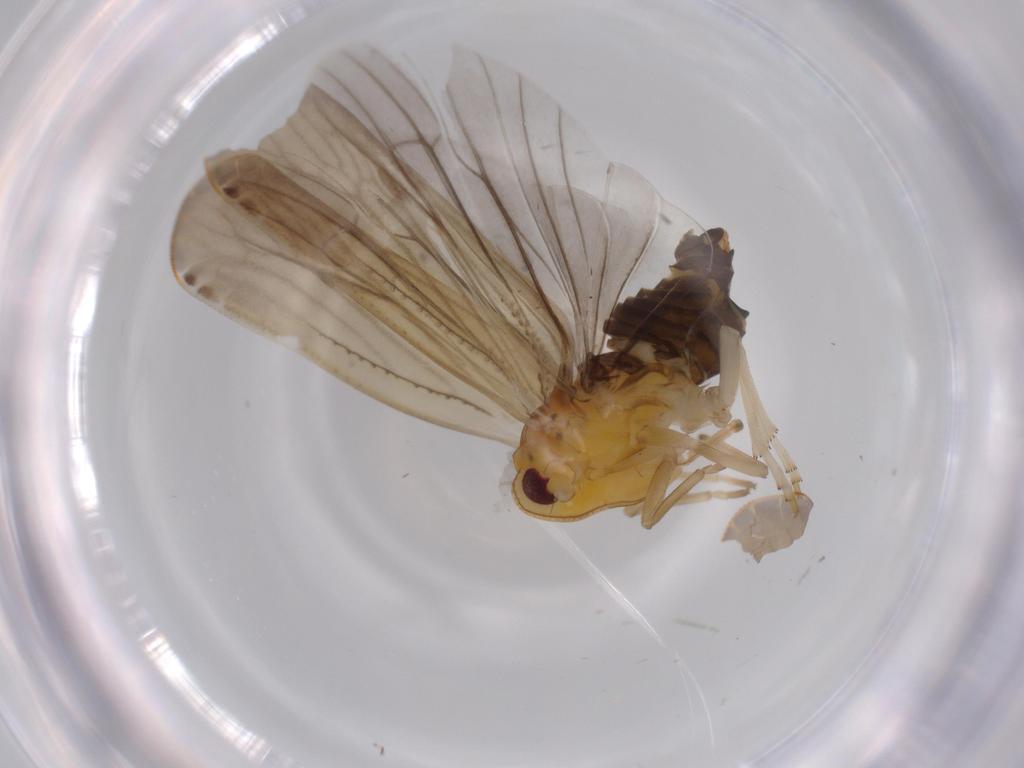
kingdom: Animalia
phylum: Arthropoda
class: Insecta
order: Hemiptera
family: Derbidae
